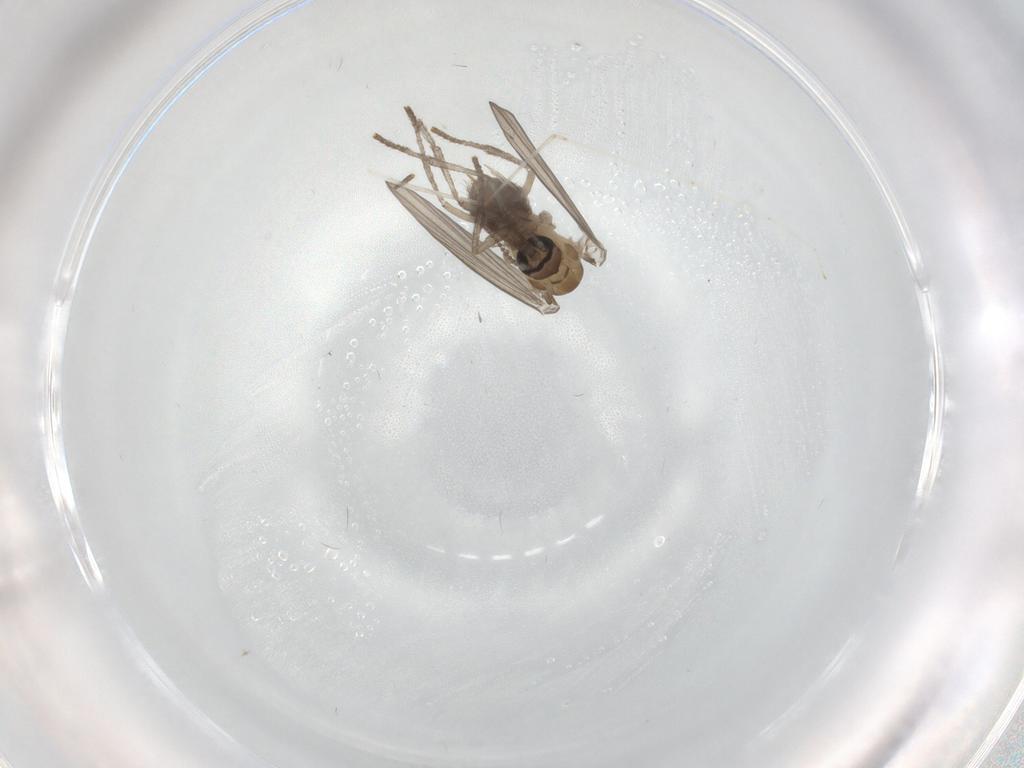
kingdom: Animalia
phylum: Arthropoda
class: Insecta
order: Diptera
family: Psychodidae
